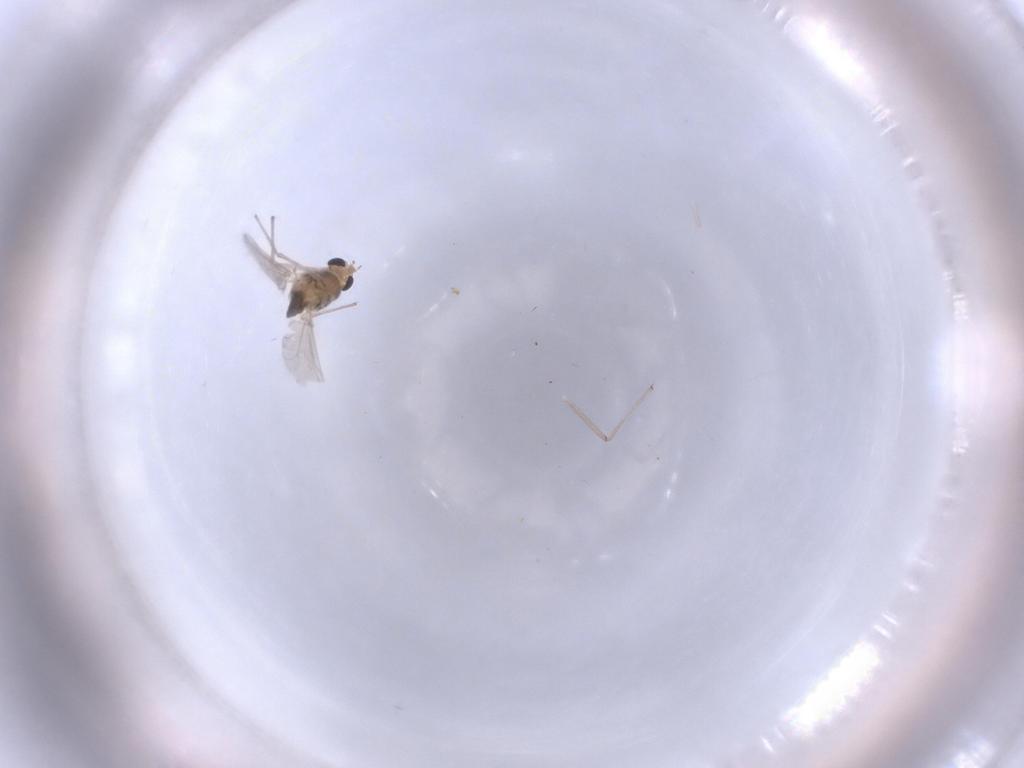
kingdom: Animalia
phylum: Arthropoda
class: Insecta
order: Diptera
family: Chironomidae
